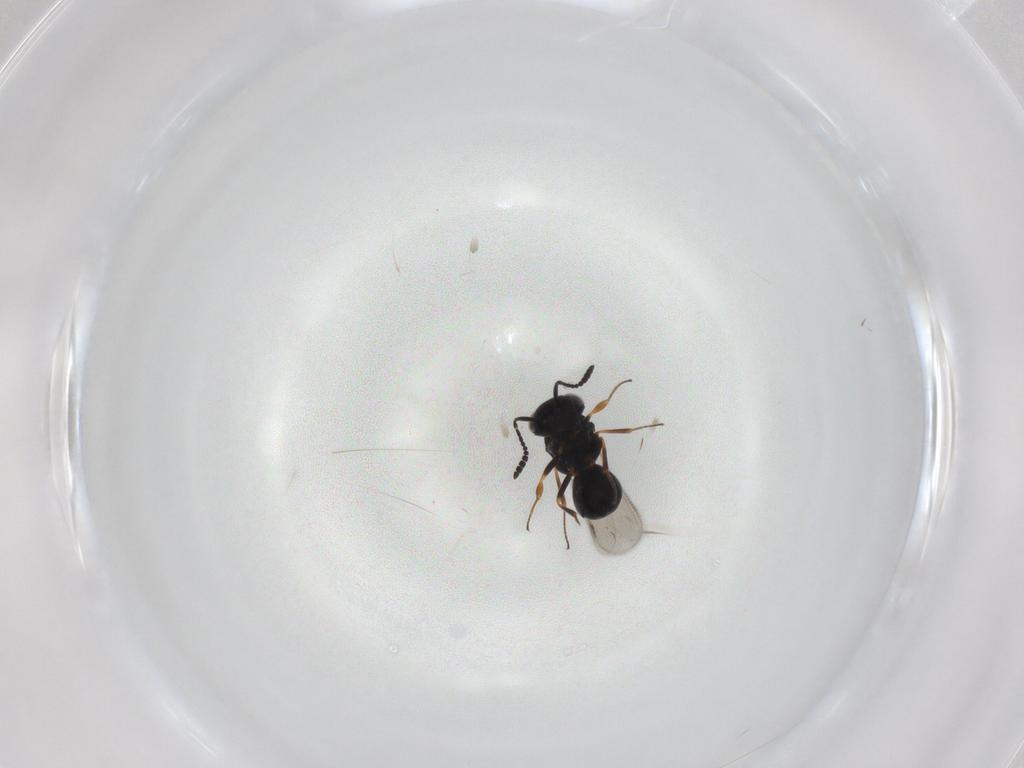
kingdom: Animalia
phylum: Arthropoda
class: Insecta
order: Hymenoptera
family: Scelionidae
